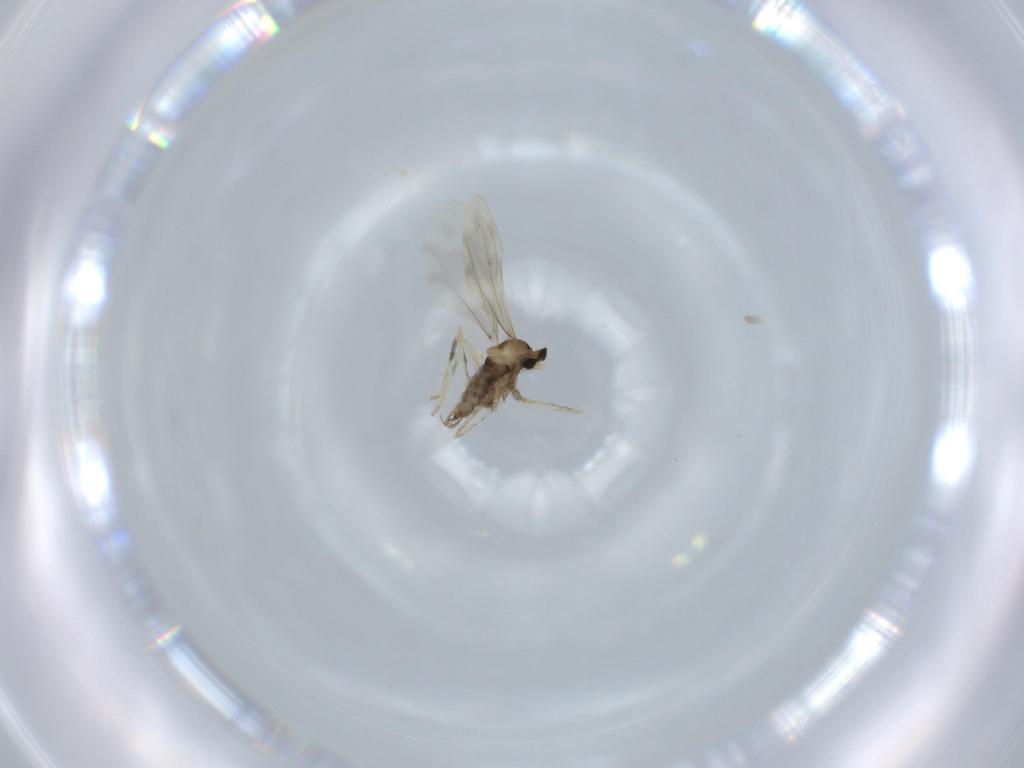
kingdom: Animalia
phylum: Arthropoda
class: Insecta
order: Diptera
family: Cecidomyiidae
